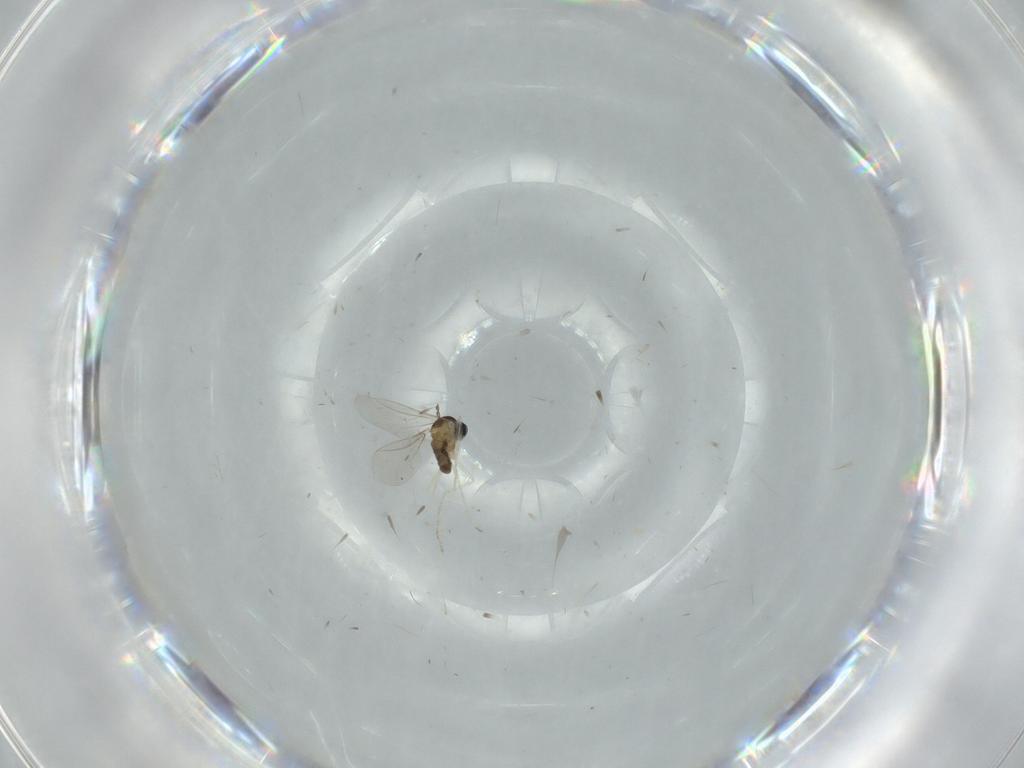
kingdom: Animalia
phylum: Arthropoda
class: Insecta
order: Diptera
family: Cecidomyiidae
